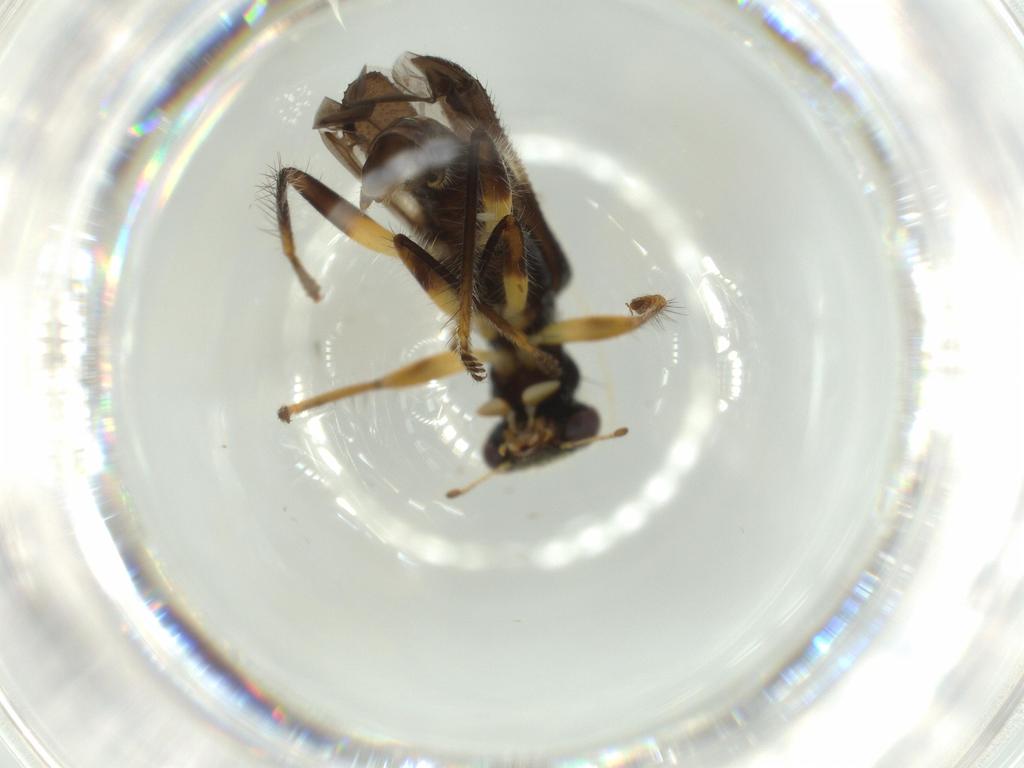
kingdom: Animalia
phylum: Arthropoda
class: Insecta
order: Coleoptera
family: Cleridae
